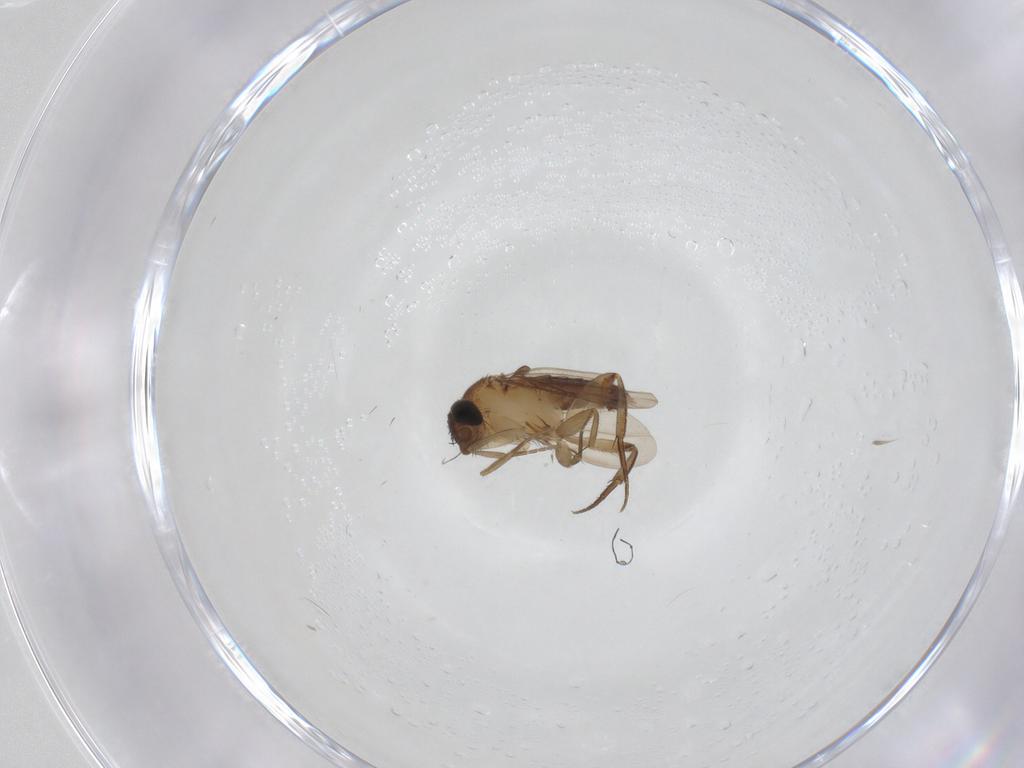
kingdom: Animalia
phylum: Arthropoda
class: Insecta
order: Diptera
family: Phoridae
